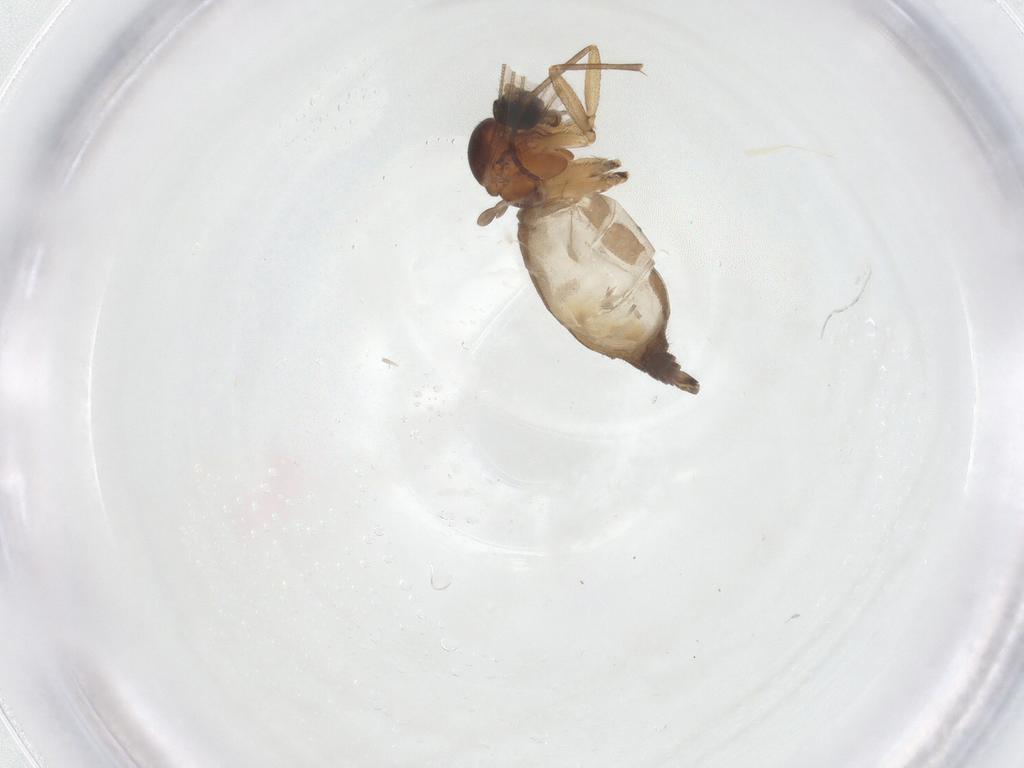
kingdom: Animalia
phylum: Arthropoda
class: Insecta
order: Diptera
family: Sciaridae
